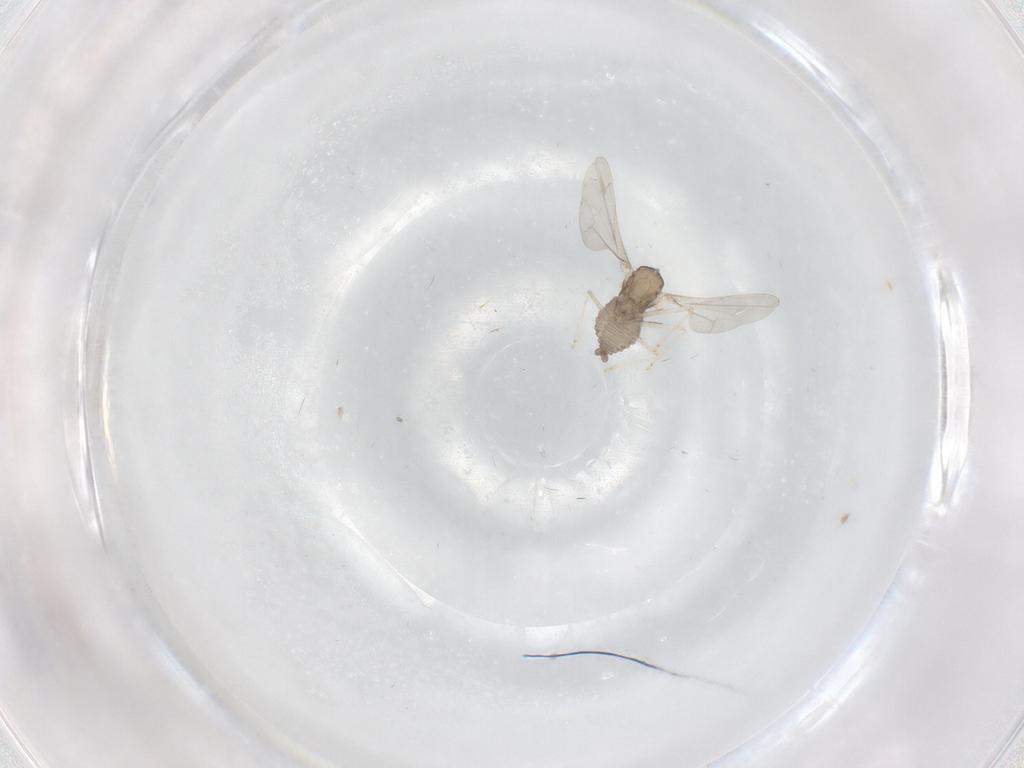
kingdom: Animalia
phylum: Arthropoda
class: Insecta
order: Diptera
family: Cecidomyiidae
